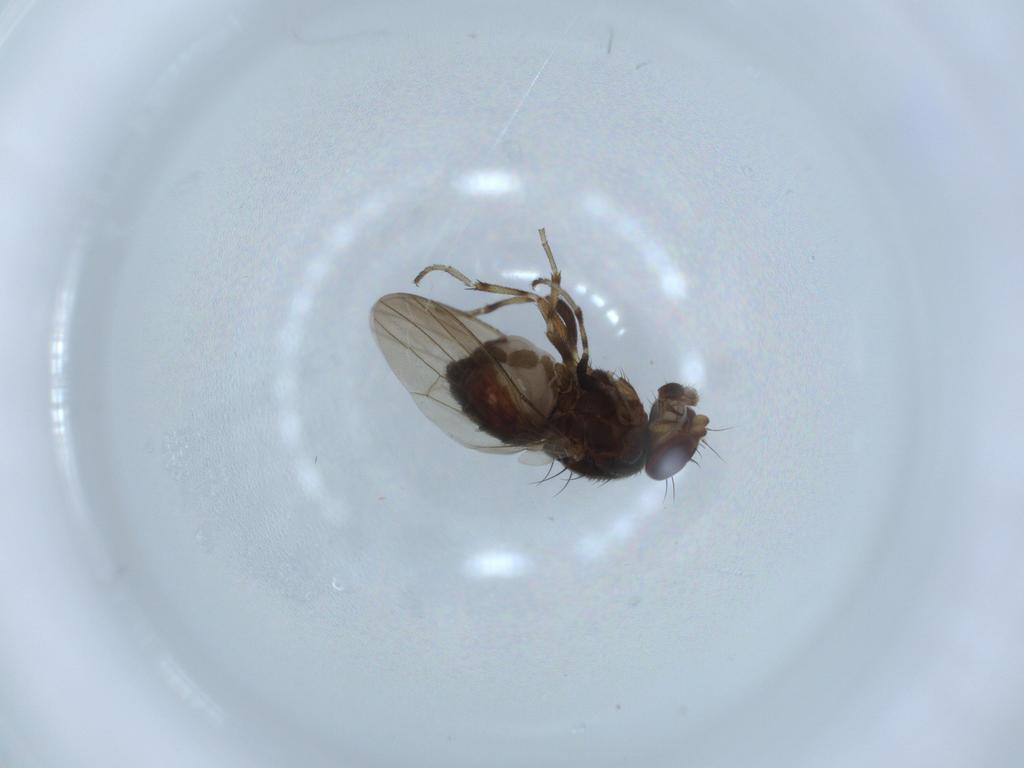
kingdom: Animalia
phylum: Arthropoda
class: Insecta
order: Diptera
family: Heleomyzidae
